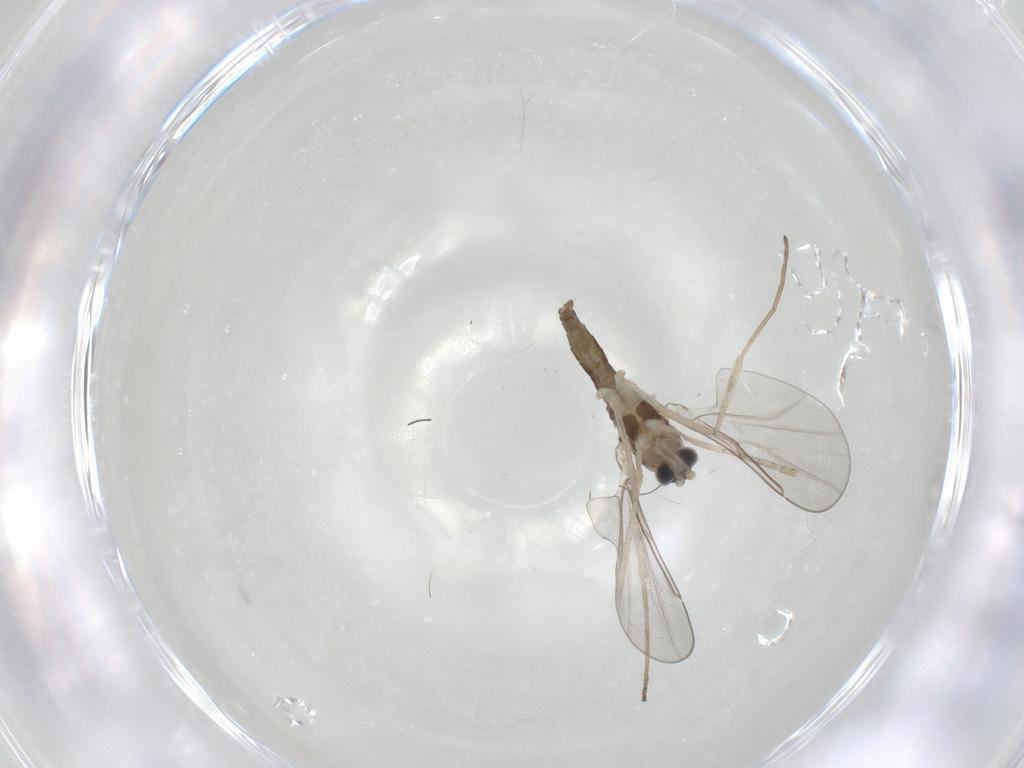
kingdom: Animalia
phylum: Arthropoda
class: Insecta
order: Diptera
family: Cecidomyiidae
